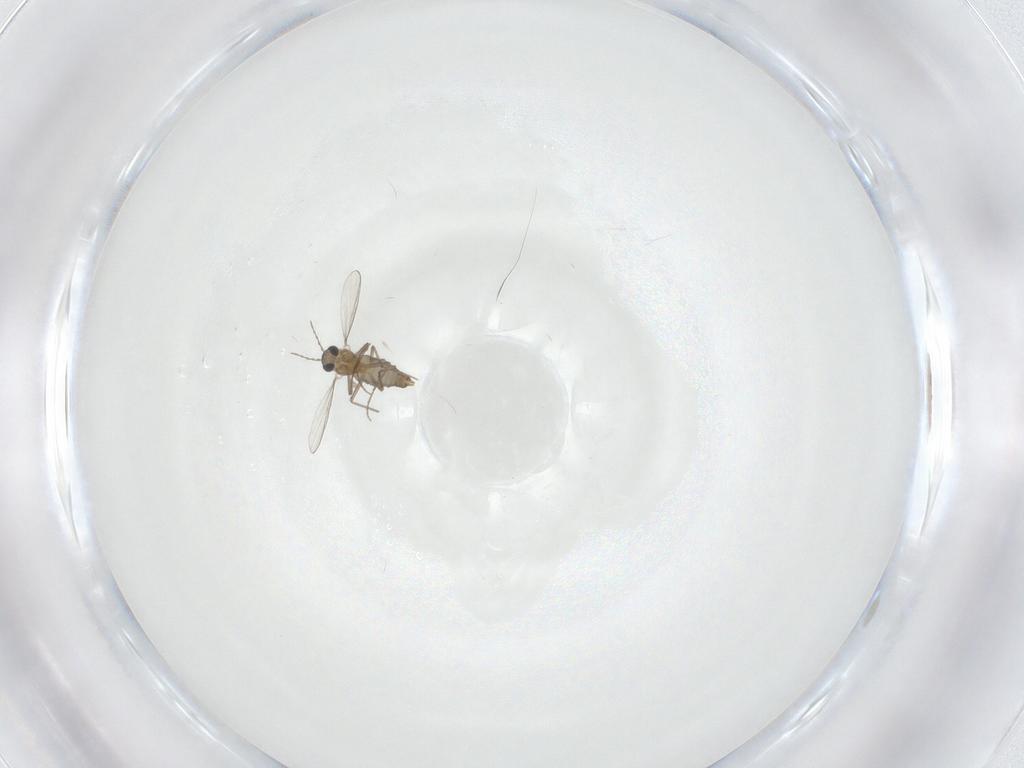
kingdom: Animalia
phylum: Arthropoda
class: Insecta
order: Diptera
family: Chironomidae
